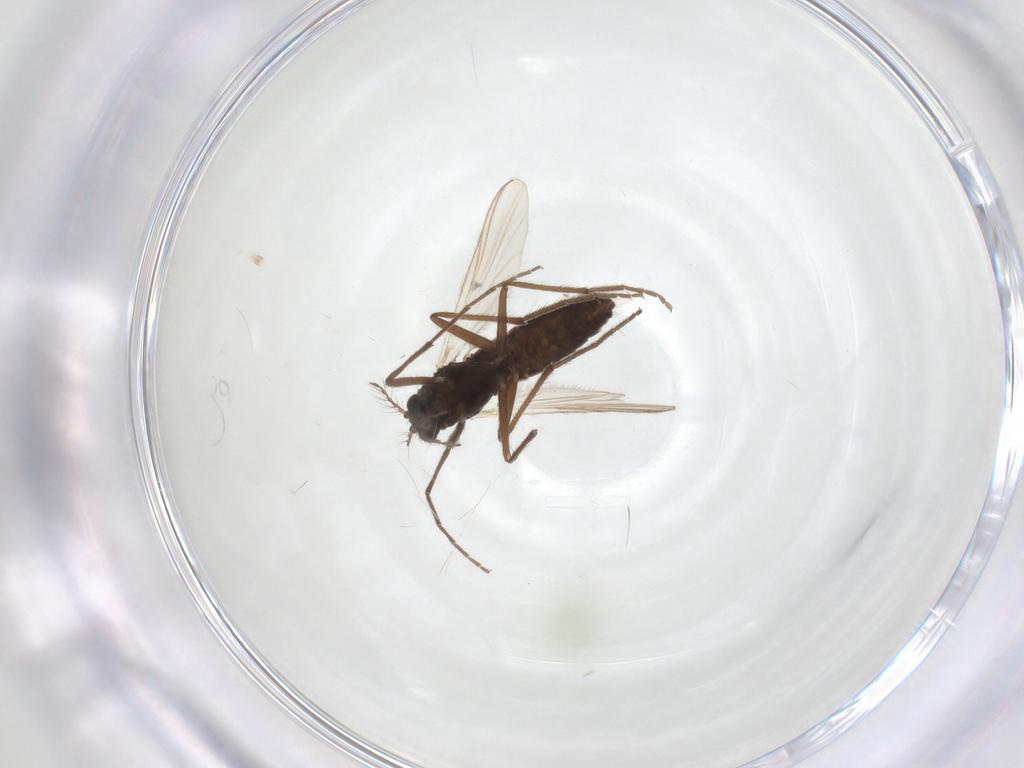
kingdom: Animalia
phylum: Arthropoda
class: Insecta
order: Diptera
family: Chironomidae
